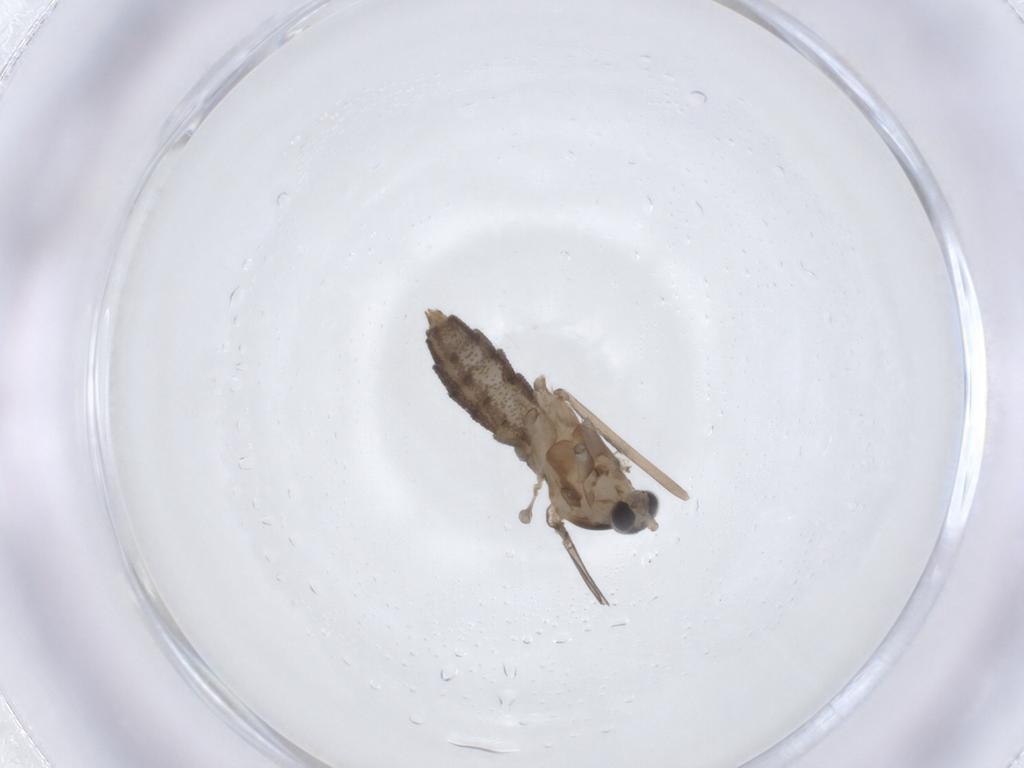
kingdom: Animalia
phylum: Arthropoda
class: Insecta
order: Diptera
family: Cecidomyiidae
